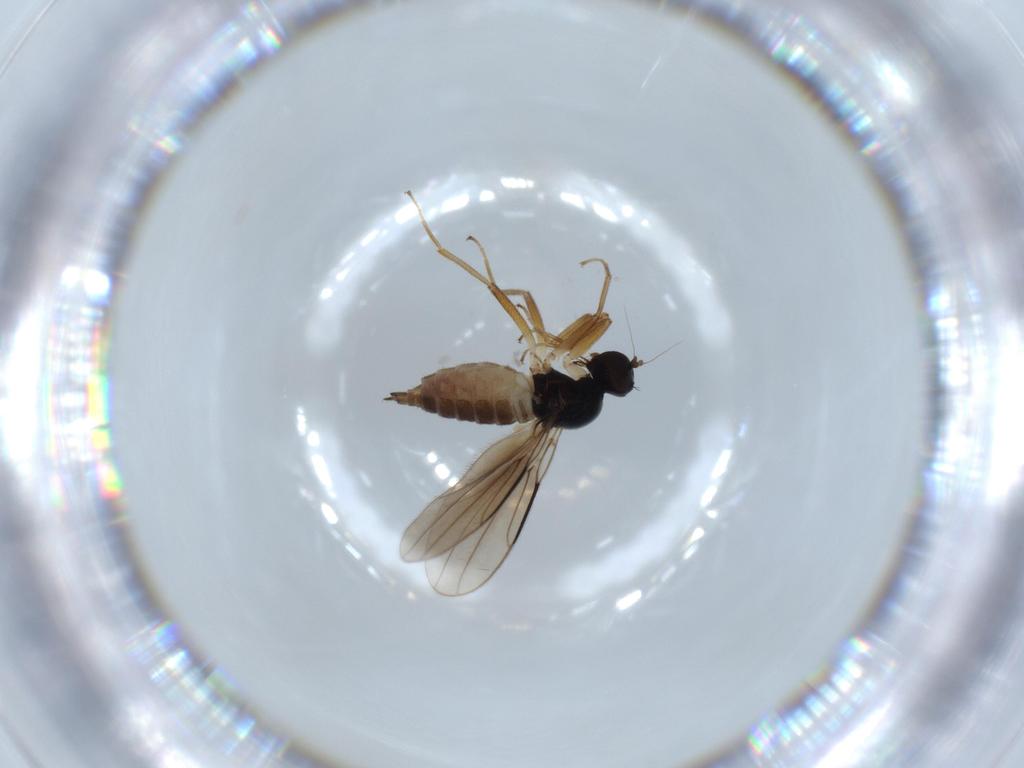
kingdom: Animalia
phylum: Arthropoda
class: Insecta
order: Diptera
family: Hybotidae
